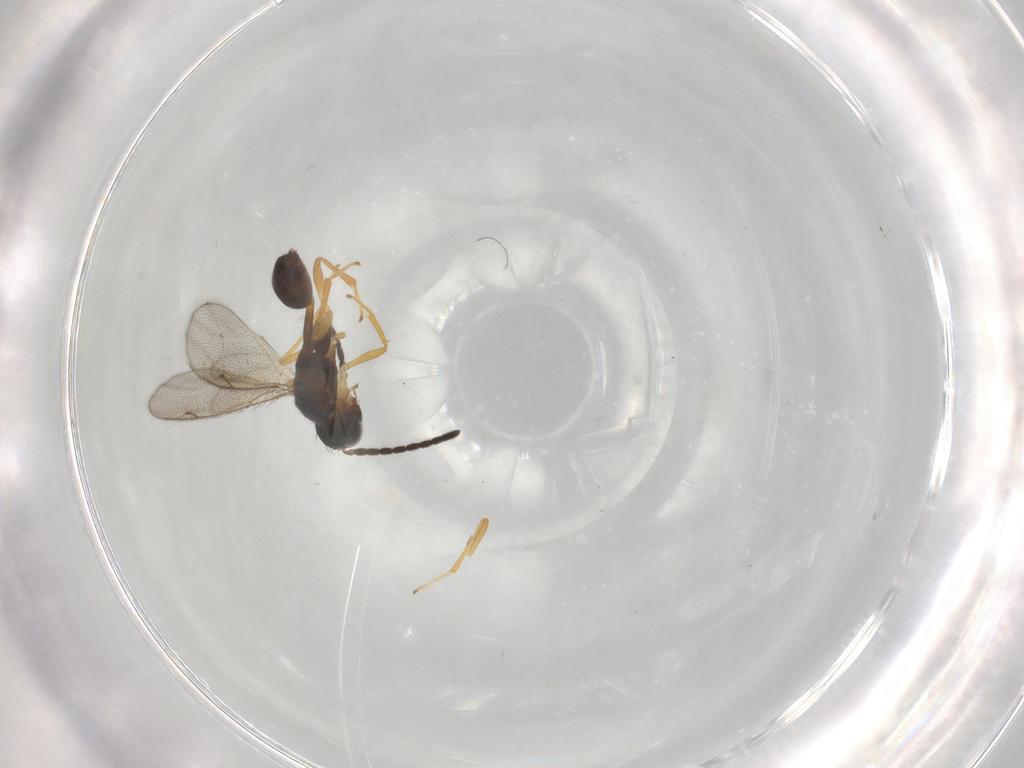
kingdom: Animalia
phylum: Arthropoda
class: Insecta
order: Hymenoptera
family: Diparidae
